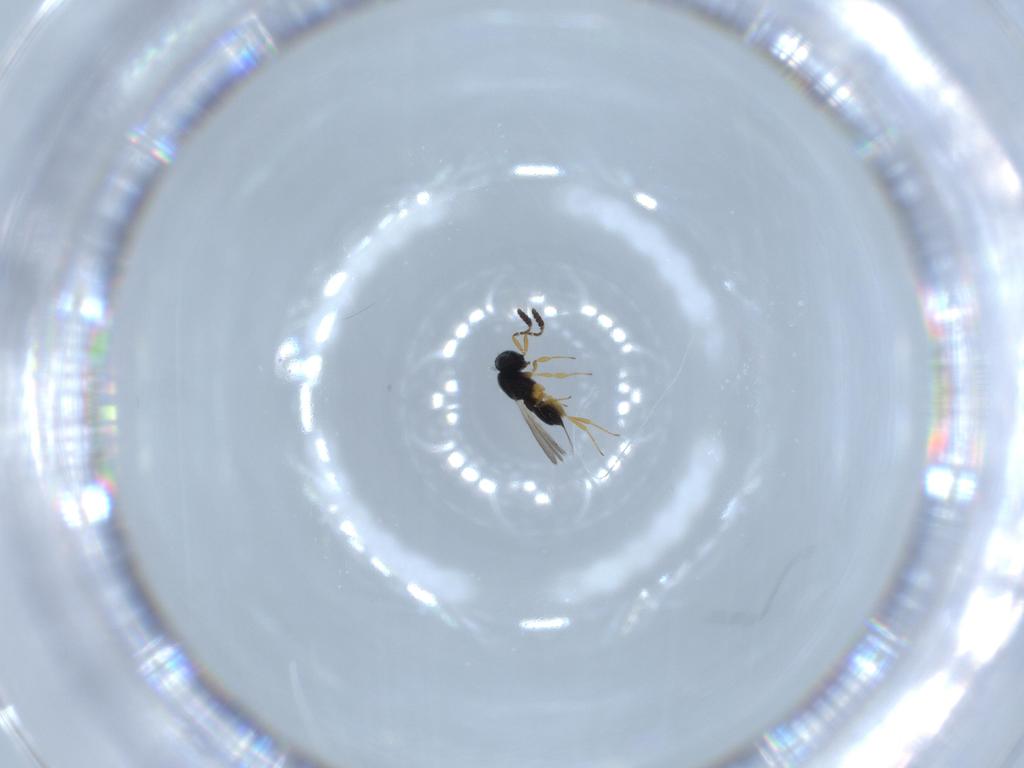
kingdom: Animalia
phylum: Arthropoda
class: Insecta
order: Hymenoptera
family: Scelionidae
